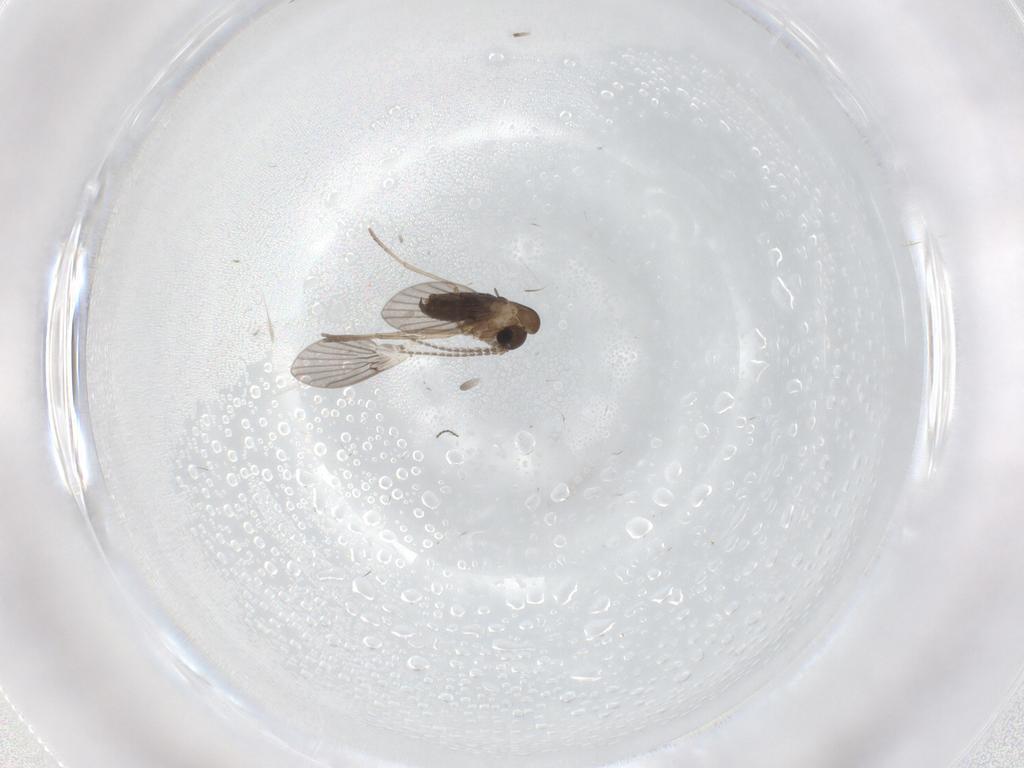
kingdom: Animalia
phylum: Arthropoda
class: Insecta
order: Diptera
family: Cecidomyiidae
